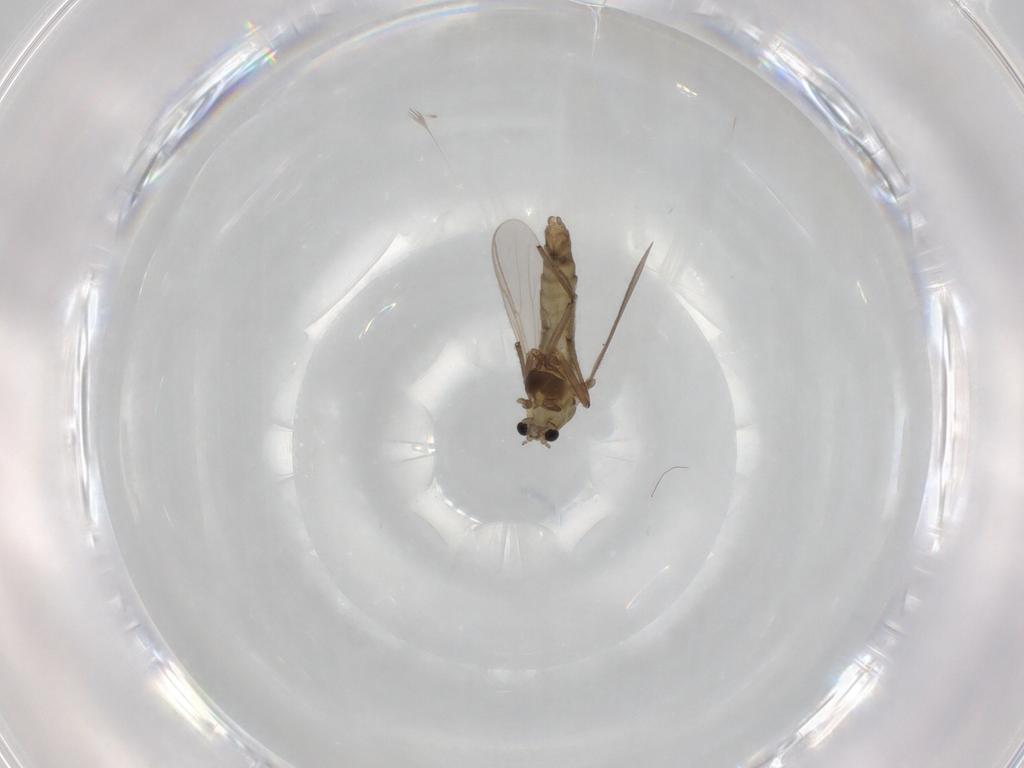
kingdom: Animalia
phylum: Arthropoda
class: Insecta
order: Diptera
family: Chironomidae
